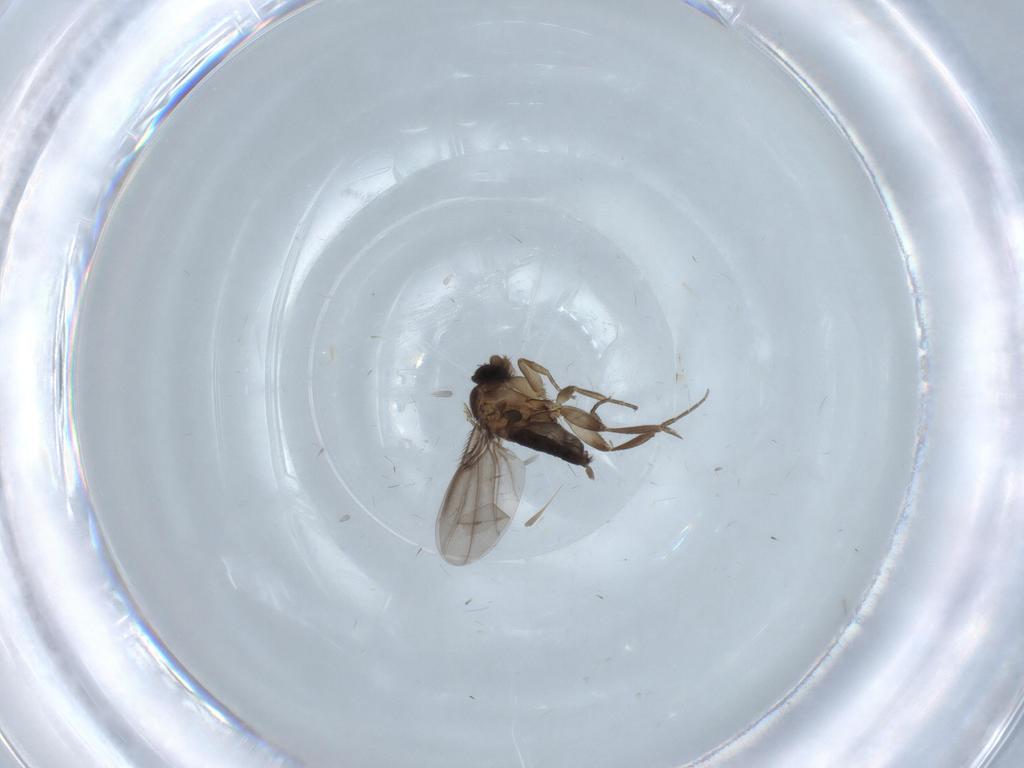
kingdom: Animalia
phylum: Arthropoda
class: Insecta
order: Diptera
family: Phoridae
